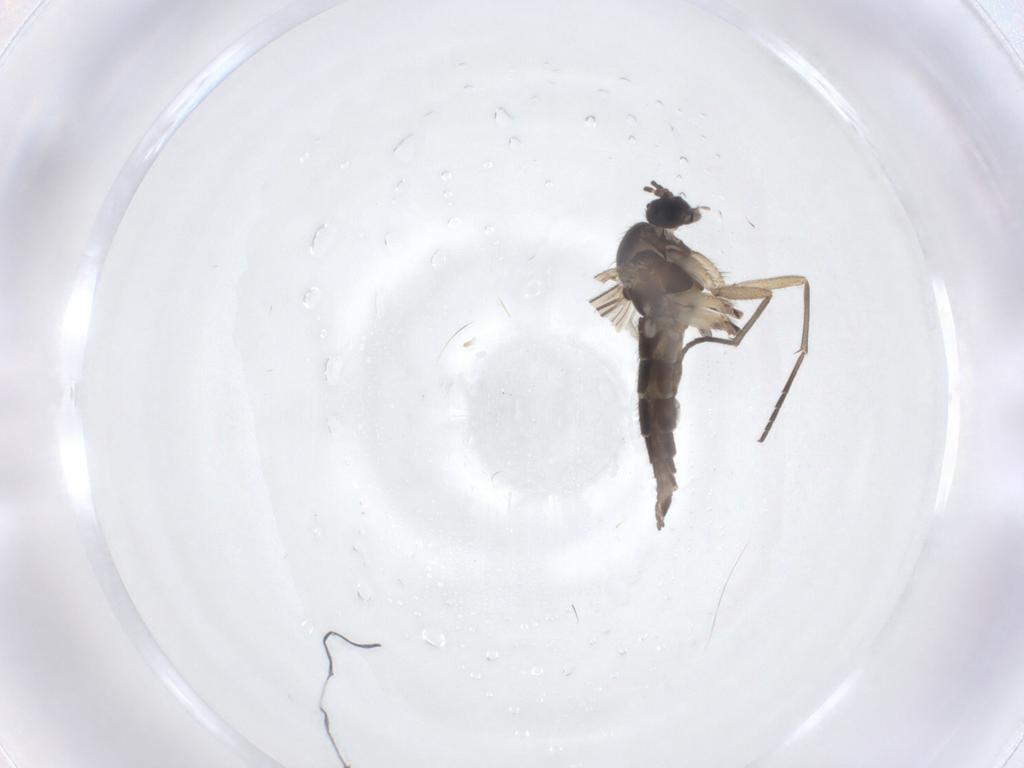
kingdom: Animalia
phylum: Arthropoda
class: Insecta
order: Diptera
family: Sciaridae
